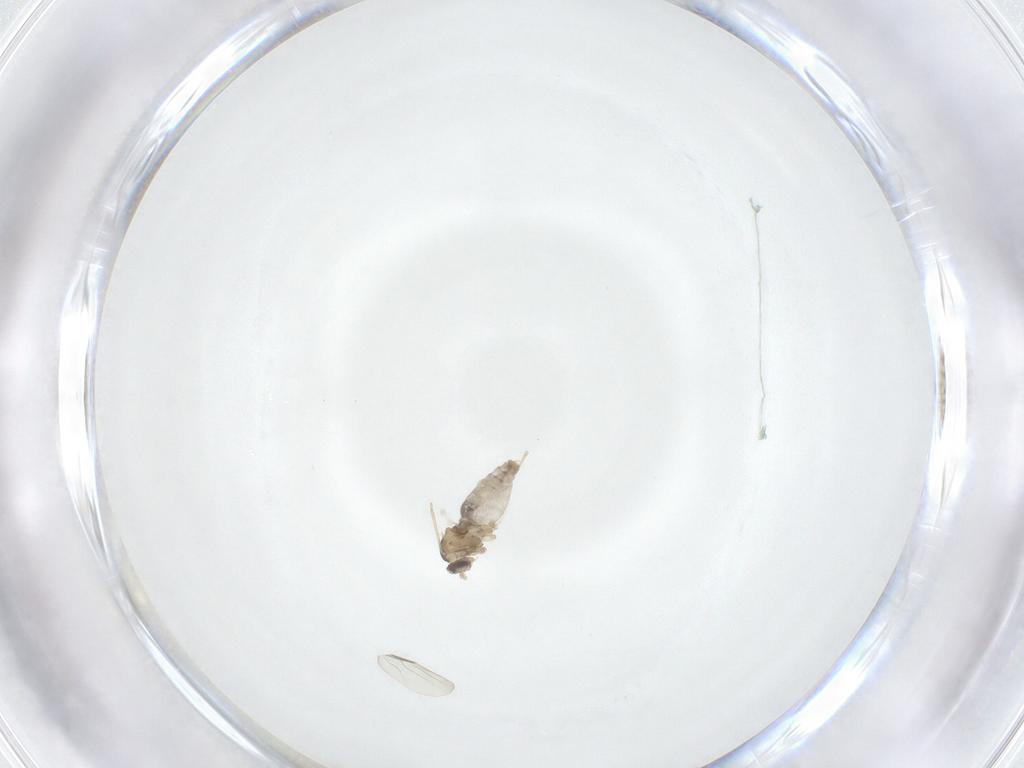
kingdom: Animalia
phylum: Arthropoda
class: Insecta
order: Diptera
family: Cecidomyiidae
